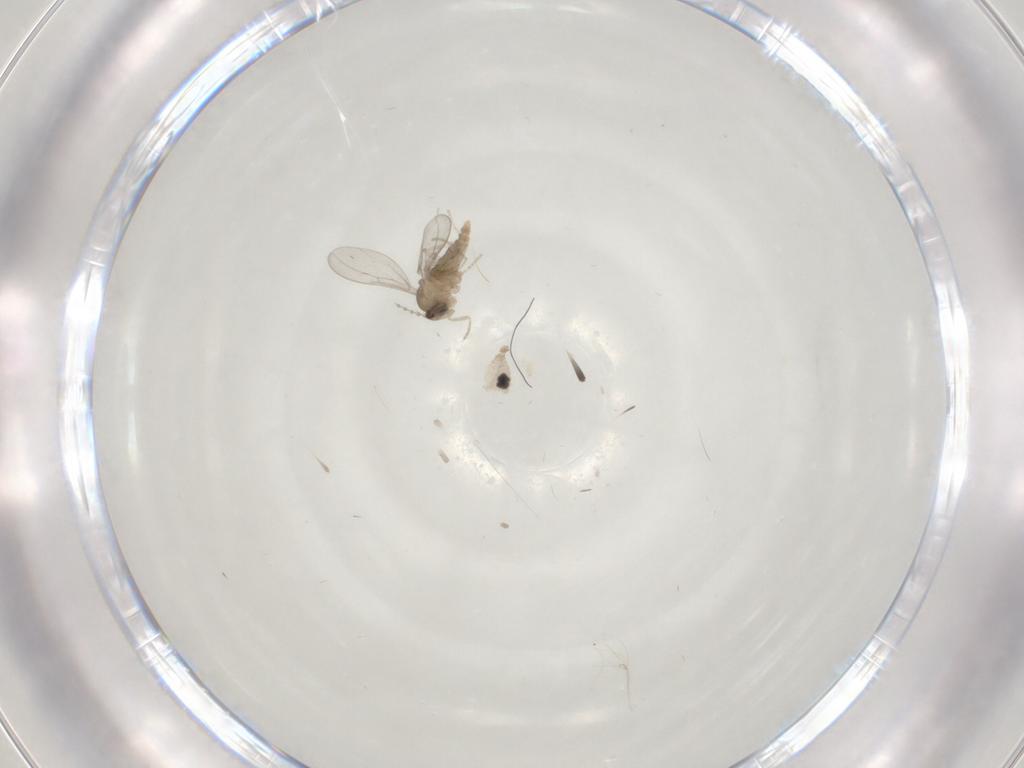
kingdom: Animalia
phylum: Arthropoda
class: Insecta
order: Diptera
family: Cecidomyiidae
